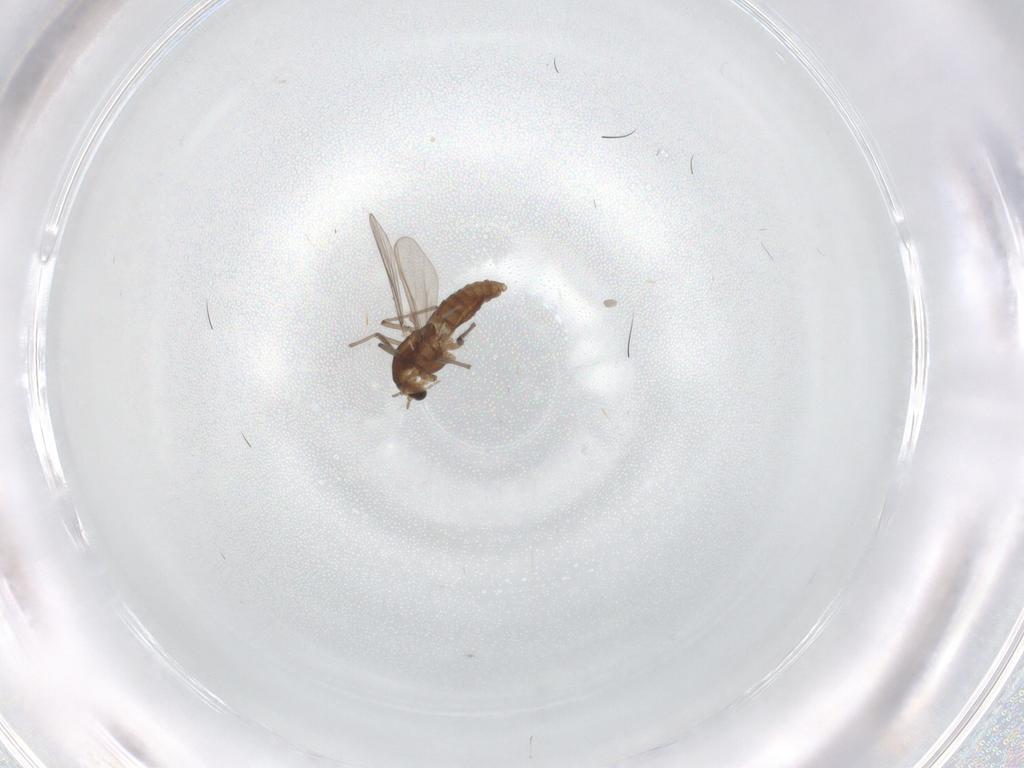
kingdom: Animalia
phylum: Arthropoda
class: Insecta
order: Diptera
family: Chironomidae
